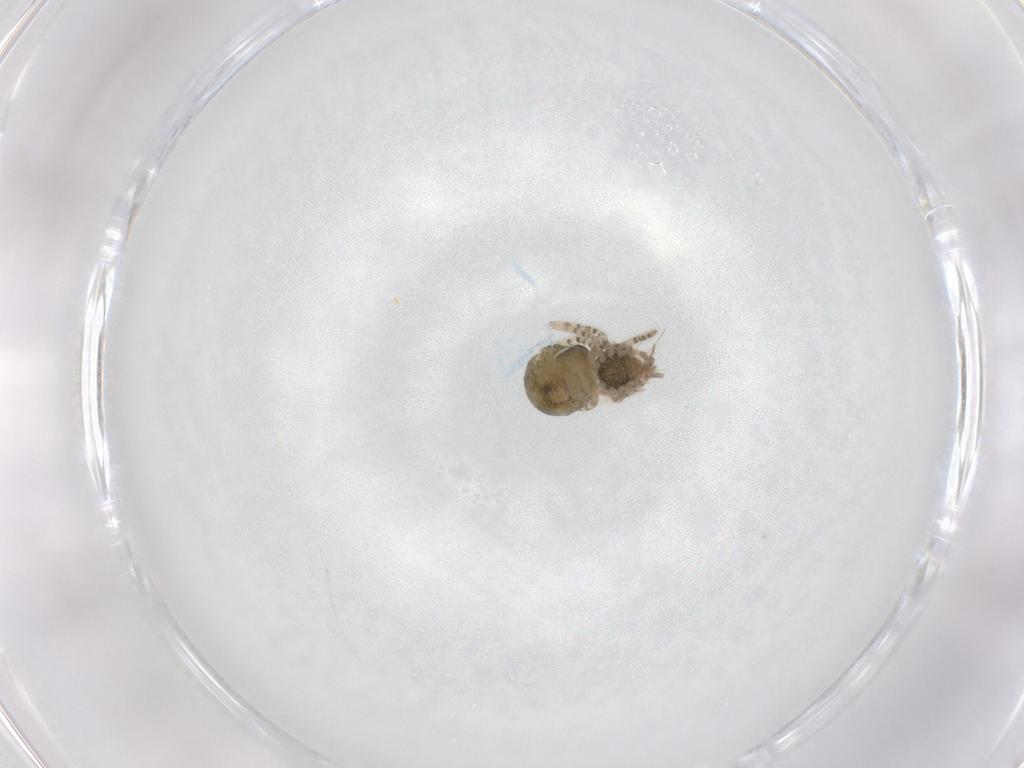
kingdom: Animalia
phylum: Arthropoda
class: Arachnida
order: Araneae
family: Theridiidae
